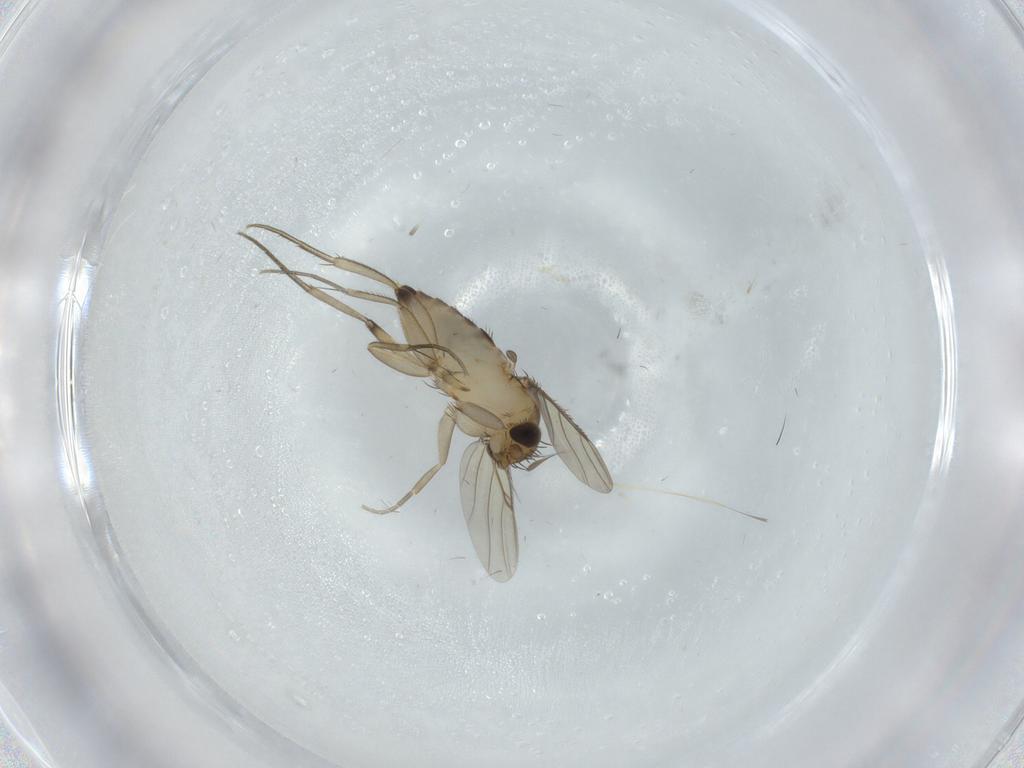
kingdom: Animalia
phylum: Arthropoda
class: Insecta
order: Diptera
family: Phoridae
